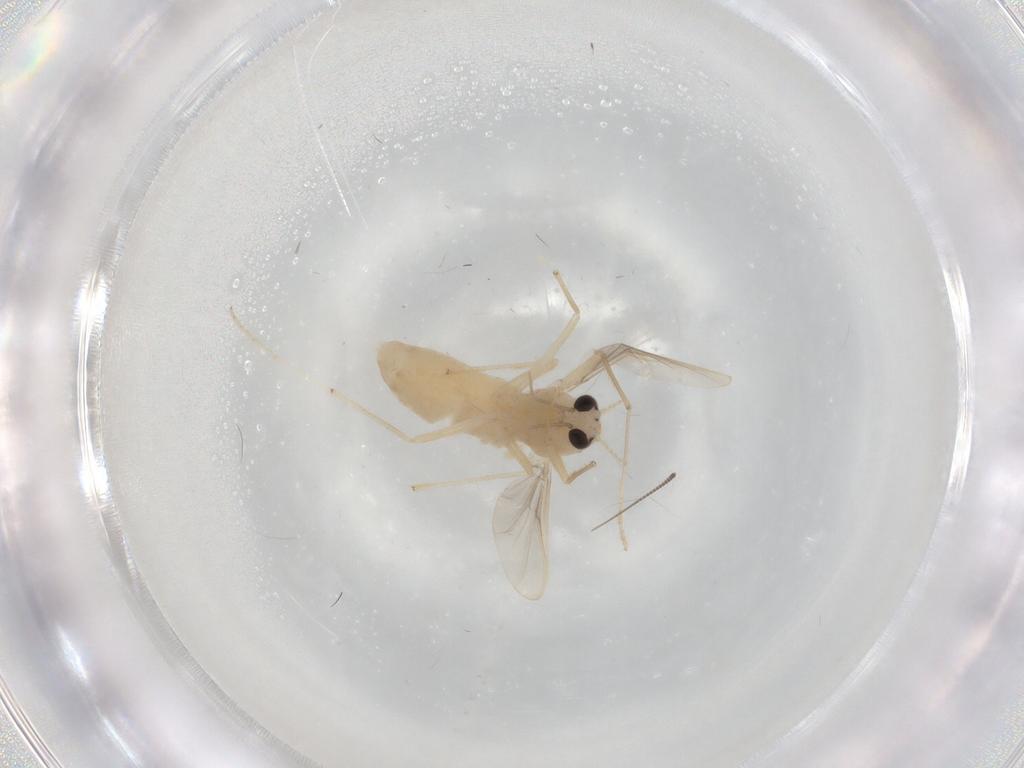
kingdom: Animalia
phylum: Arthropoda
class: Insecta
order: Diptera
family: Chironomidae
